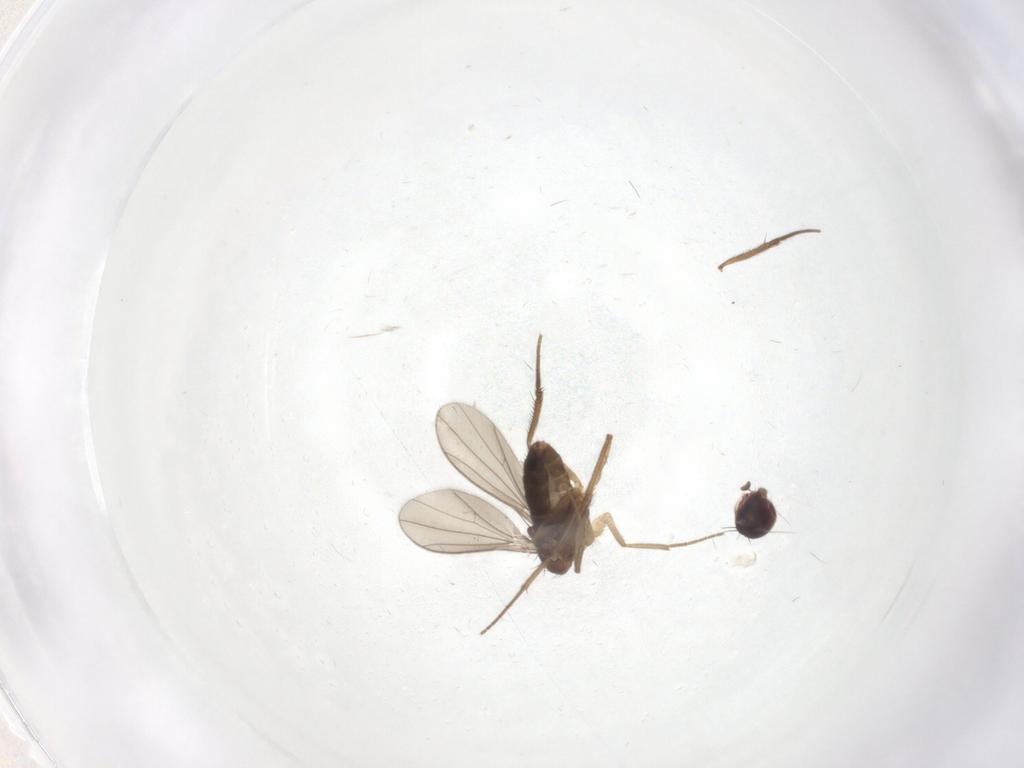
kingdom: Animalia
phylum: Arthropoda
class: Insecta
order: Diptera
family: Dolichopodidae
